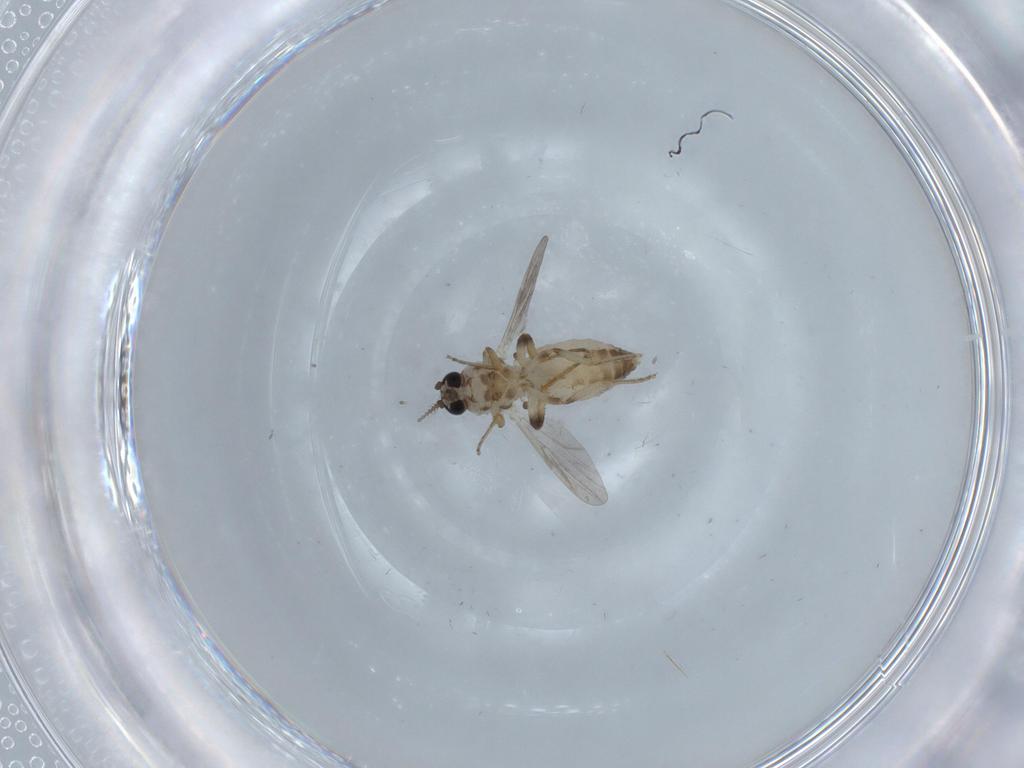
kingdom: Animalia
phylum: Arthropoda
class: Insecta
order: Diptera
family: Ceratopogonidae
